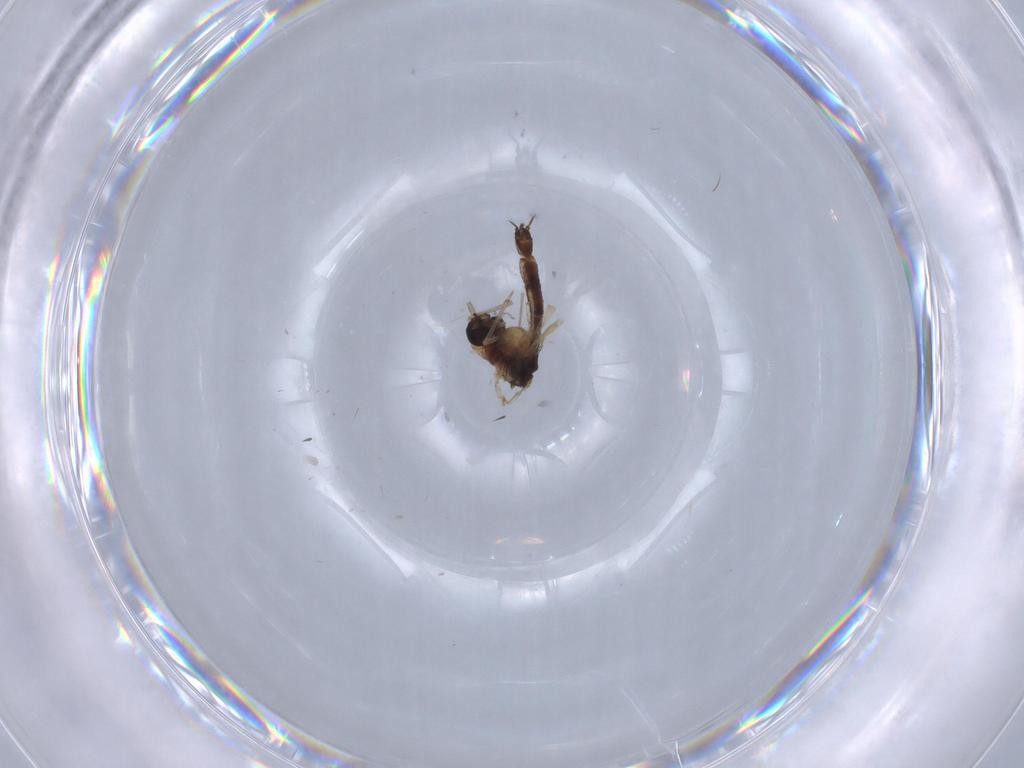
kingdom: Animalia
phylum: Arthropoda
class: Insecta
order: Diptera
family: Chironomidae
